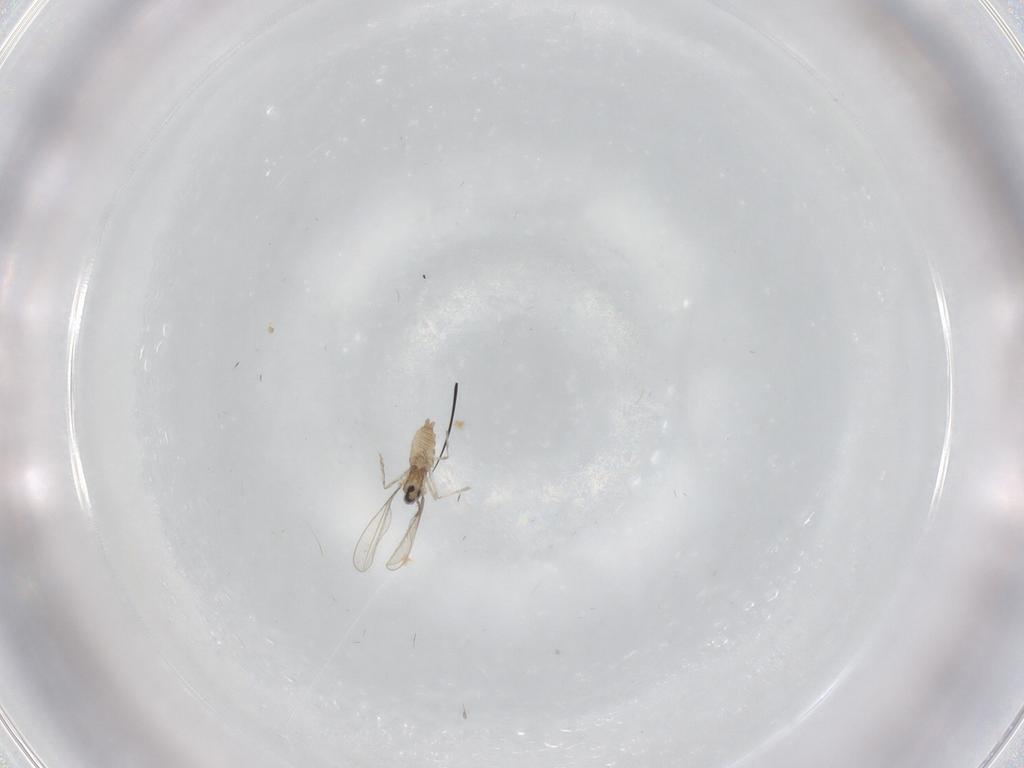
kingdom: Animalia
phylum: Arthropoda
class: Insecta
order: Diptera
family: Cecidomyiidae
